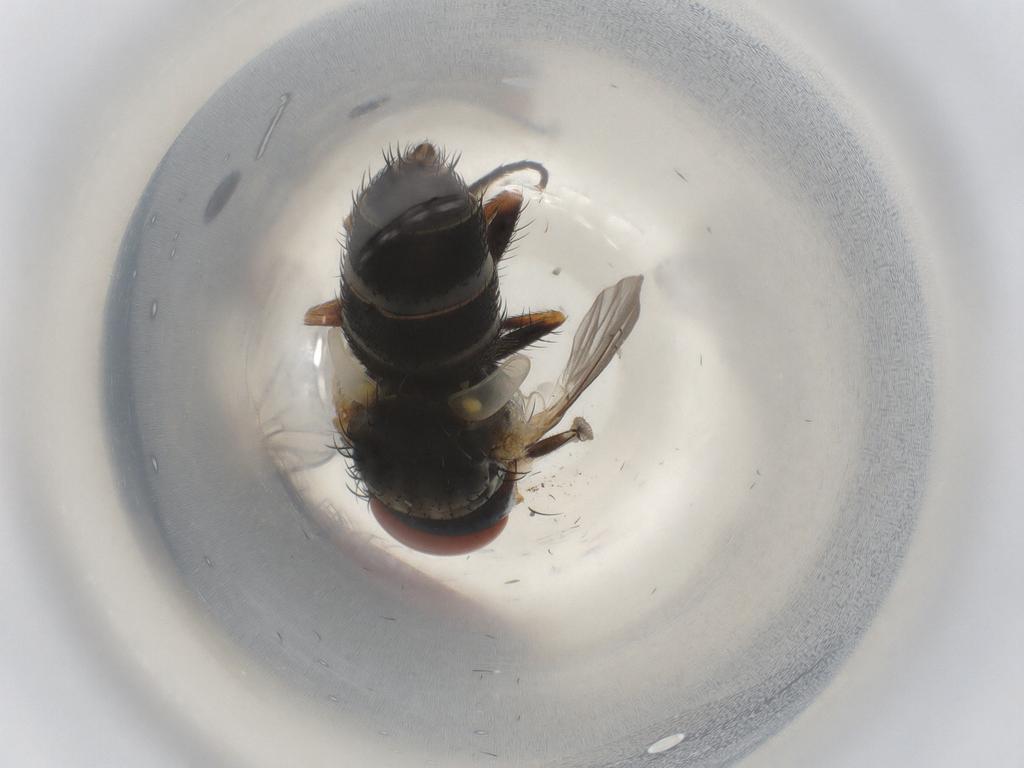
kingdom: Animalia
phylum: Arthropoda
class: Insecta
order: Diptera
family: Sarcophagidae
